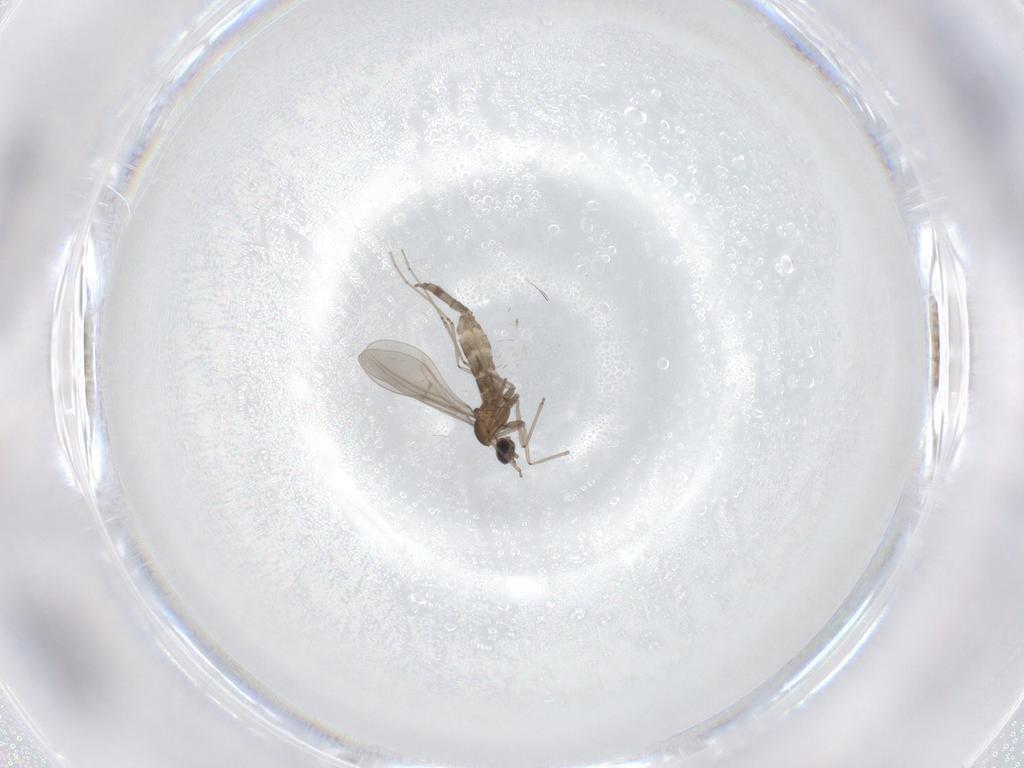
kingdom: Animalia
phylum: Arthropoda
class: Insecta
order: Diptera
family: Cecidomyiidae
